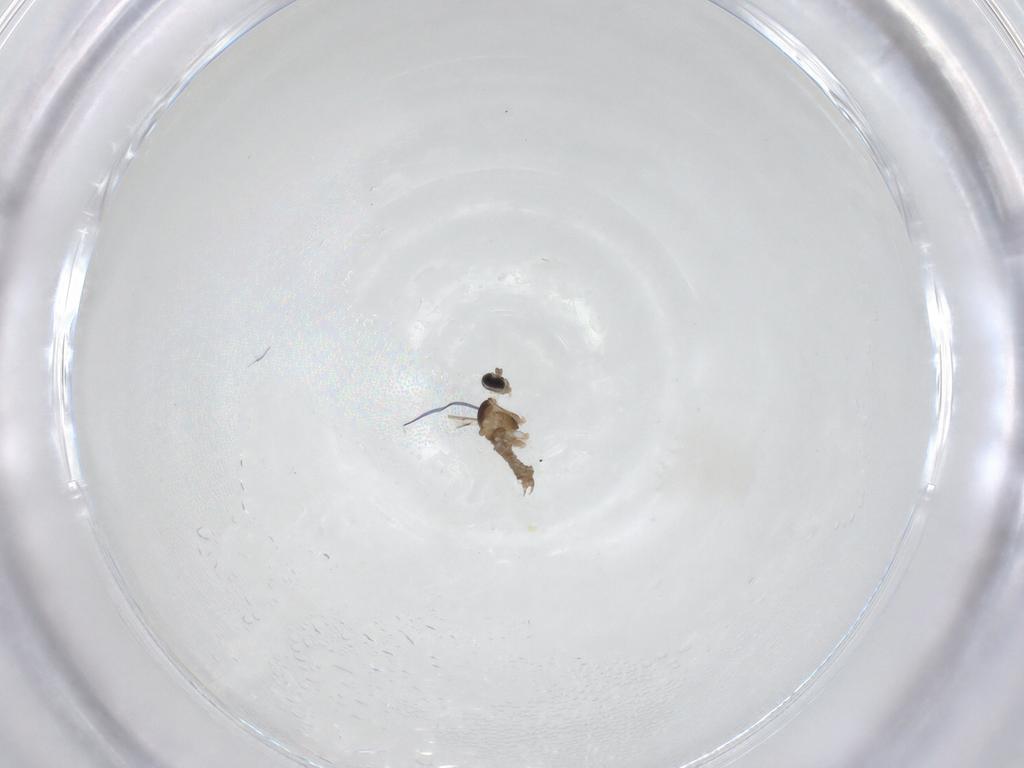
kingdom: Animalia
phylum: Arthropoda
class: Insecta
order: Diptera
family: Cecidomyiidae
